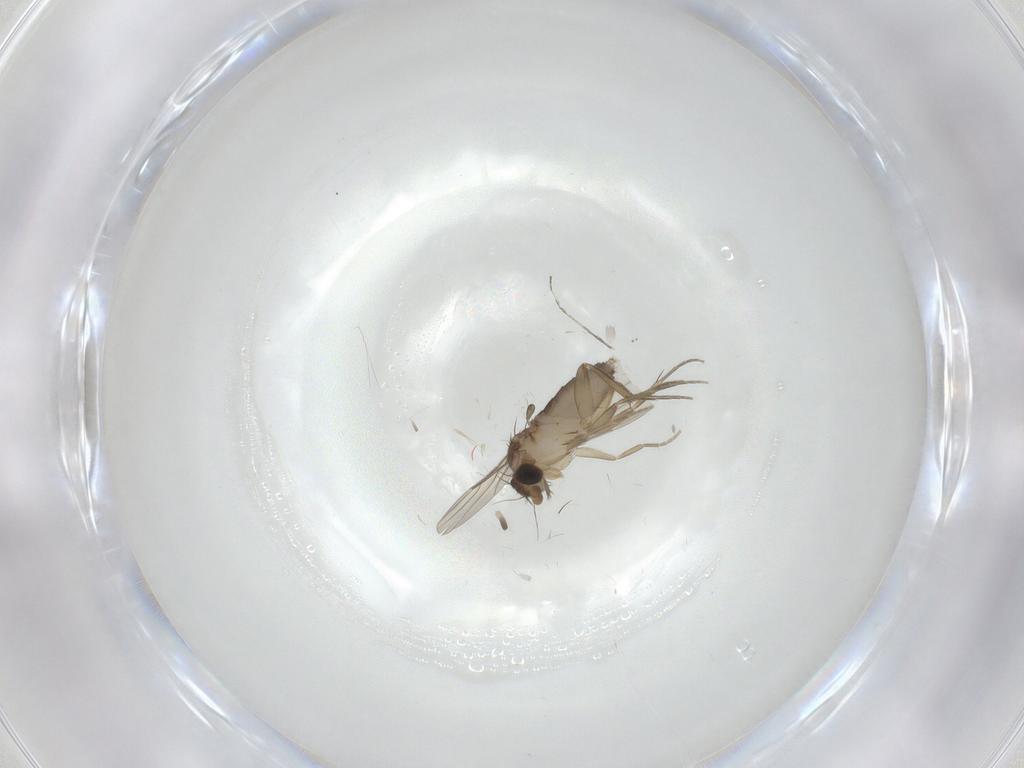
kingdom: Animalia
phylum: Arthropoda
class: Insecta
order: Diptera
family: Phoridae
